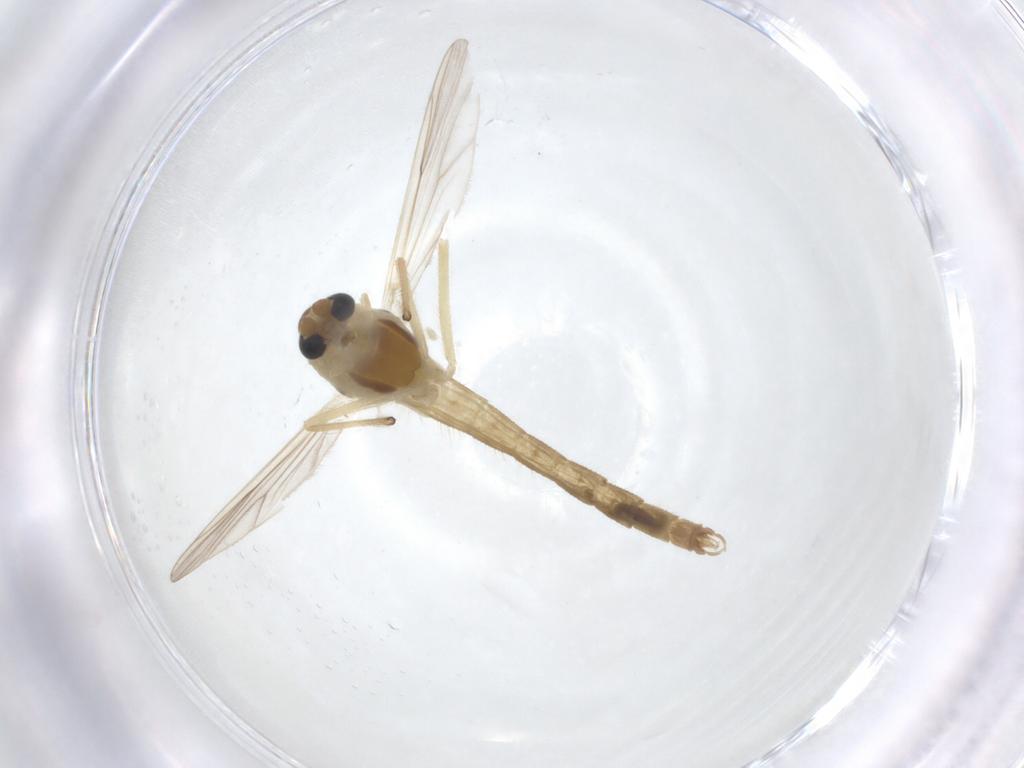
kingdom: Animalia
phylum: Arthropoda
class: Insecta
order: Diptera
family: Chironomidae
